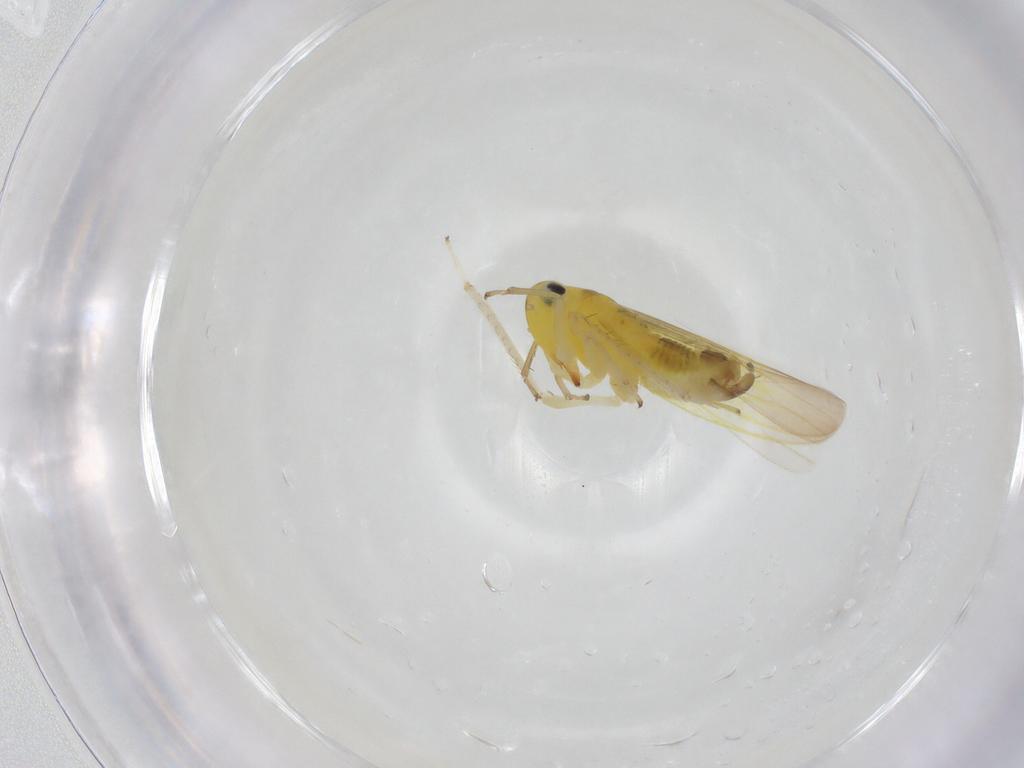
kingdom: Animalia
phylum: Arthropoda
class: Insecta
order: Hemiptera
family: Cicadellidae
